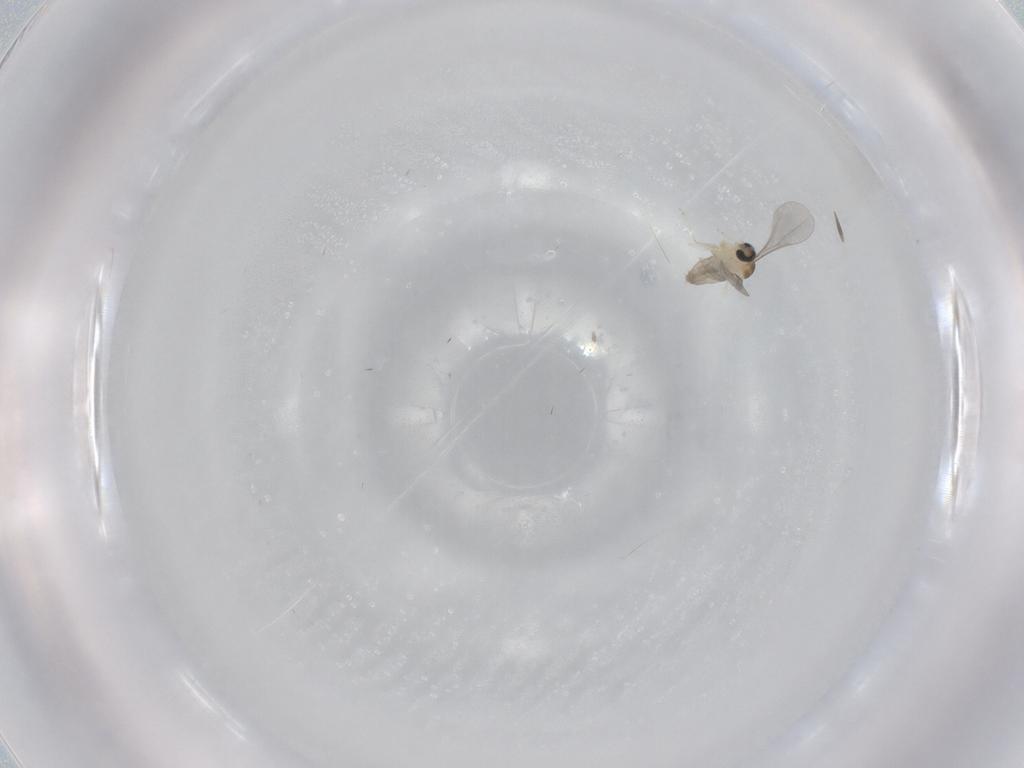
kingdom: Animalia
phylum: Arthropoda
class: Insecta
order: Diptera
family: Cecidomyiidae
